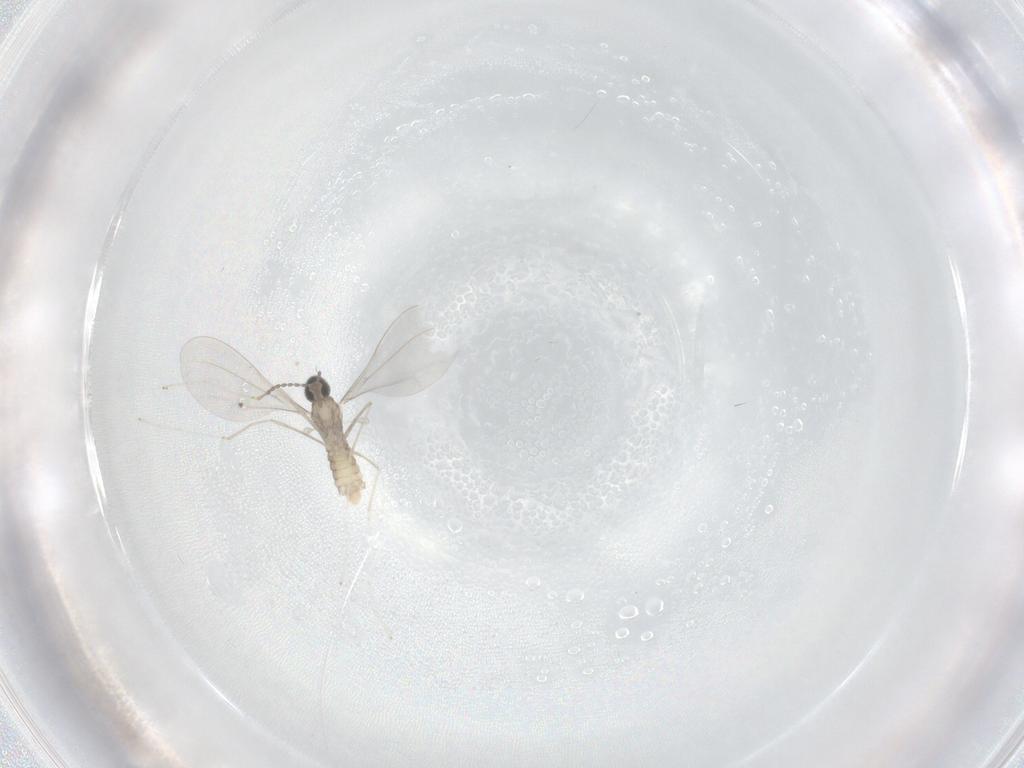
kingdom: Animalia
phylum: Arthropoda
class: Insecta
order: Diptera
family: Cecidomyiidae
